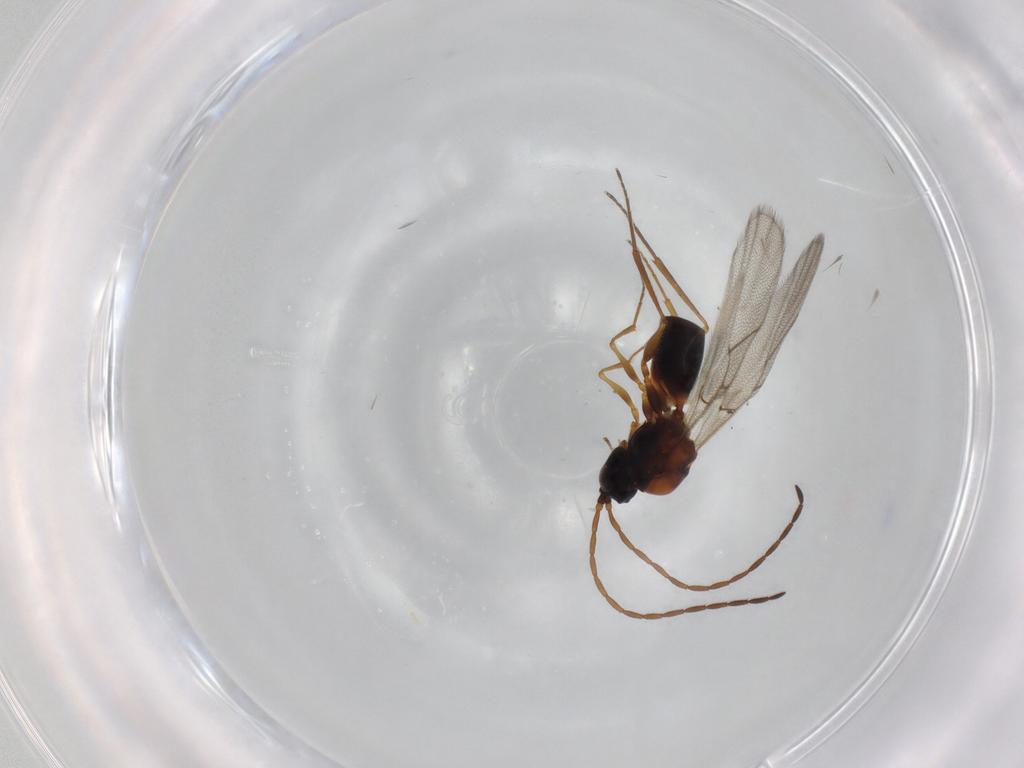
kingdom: Animalia
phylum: Arthropoda
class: Insecta
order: Hymenoptera
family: Figitidae
